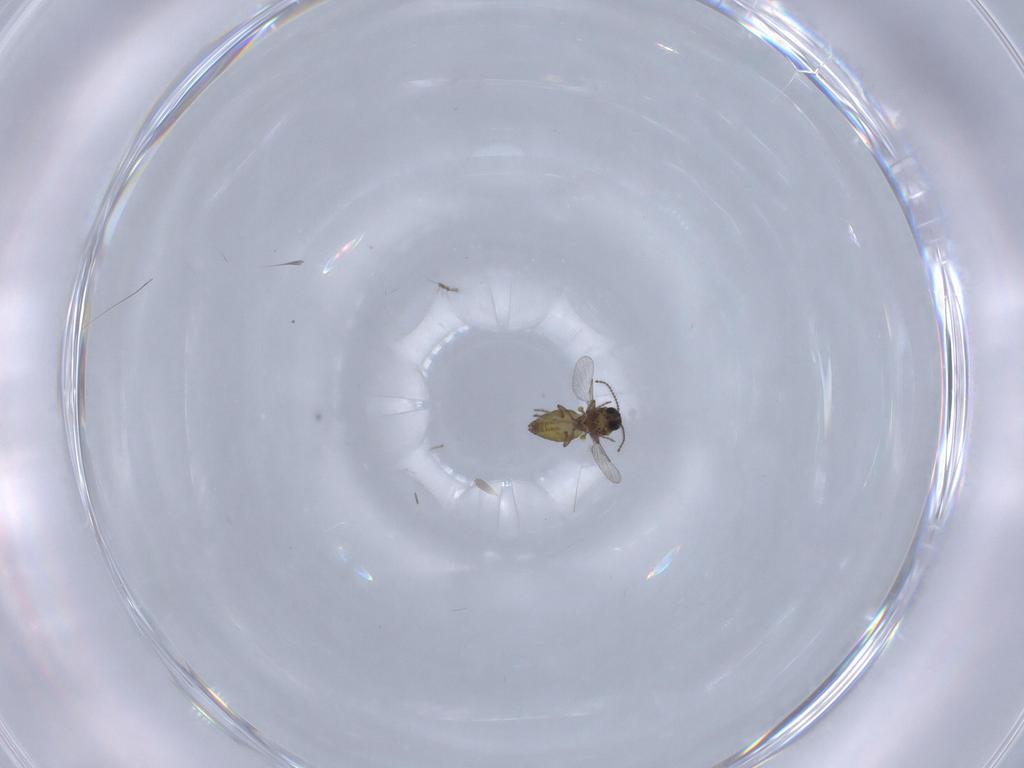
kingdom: Animalia
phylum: Arthropoda
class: Insecta
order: Diptera
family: Ceratopogonidae
